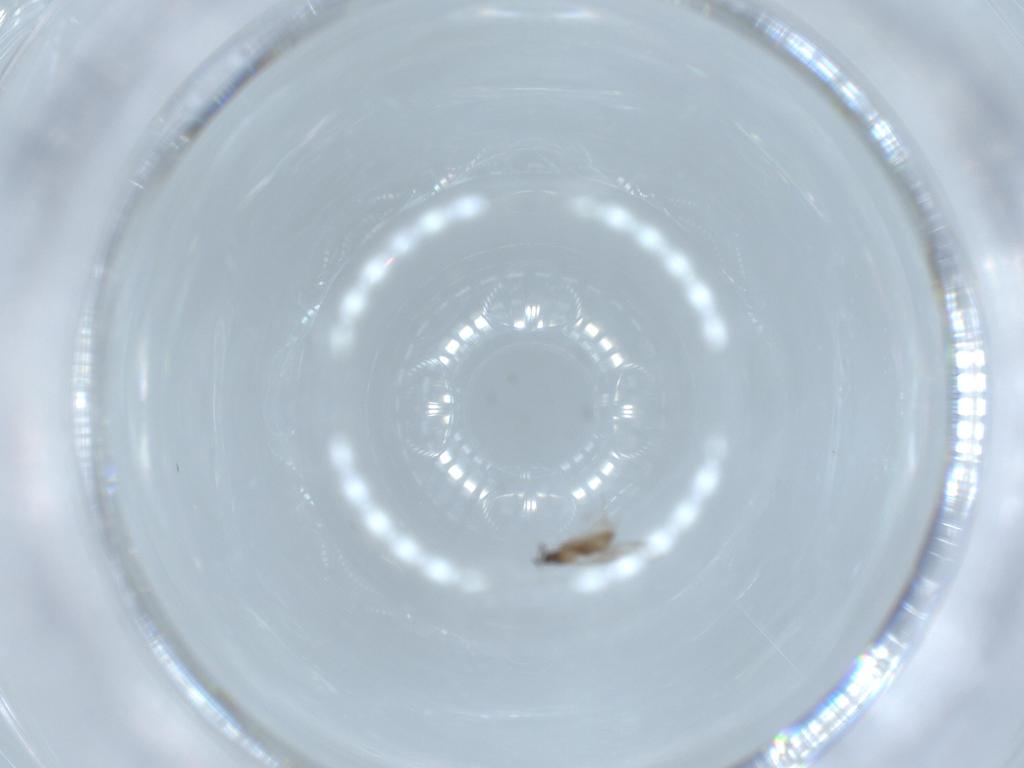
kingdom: Animalia
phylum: Arthropoda
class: Insecta
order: Diptera
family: Cecidomyiidae
